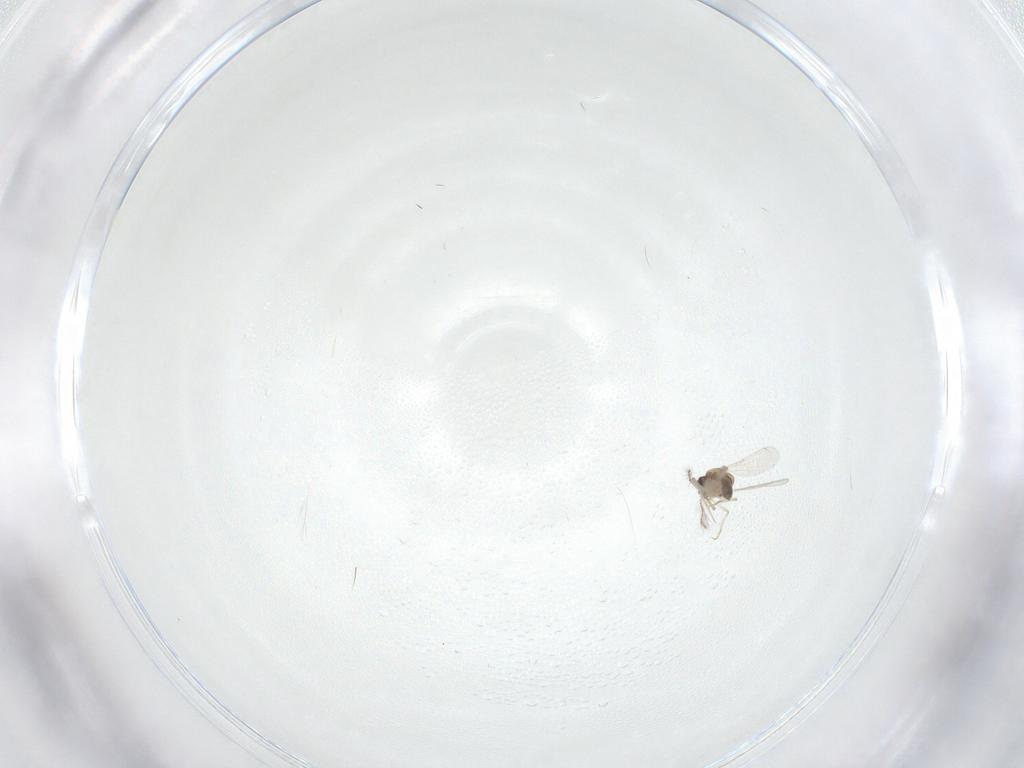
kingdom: Animalia
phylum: Arthropoda
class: Insecta
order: Diptera
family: Ceratopogonidae
